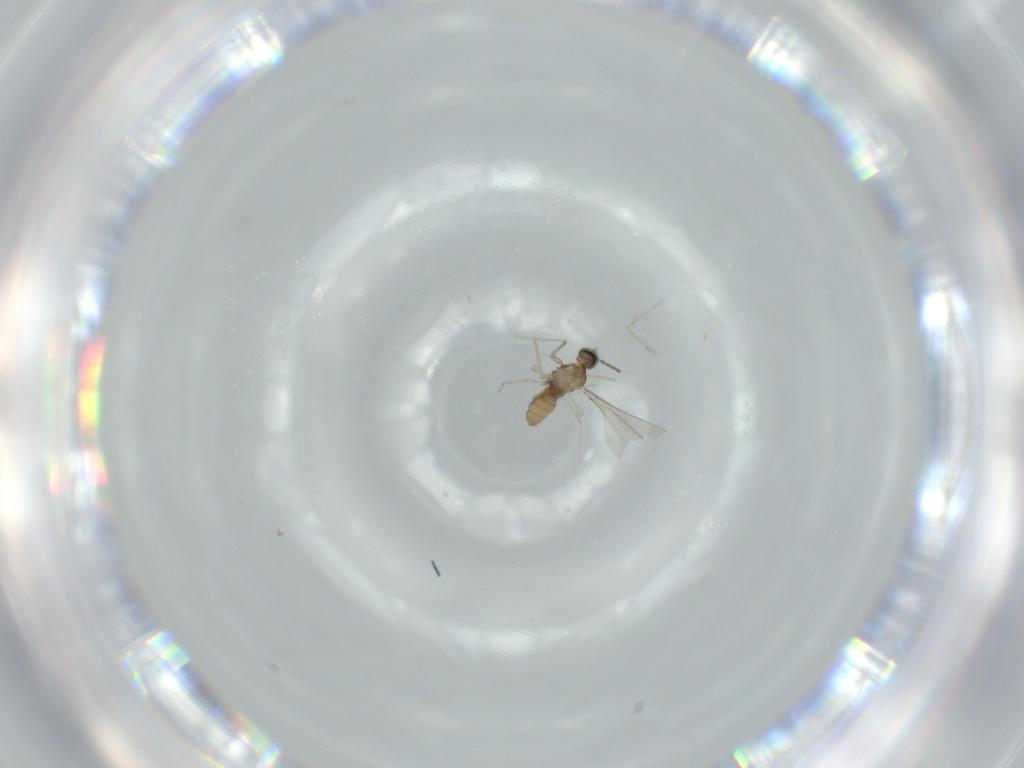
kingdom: Animalia
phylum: Arthropoda
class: Insecta
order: Diptera
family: Cecidomyiidae
